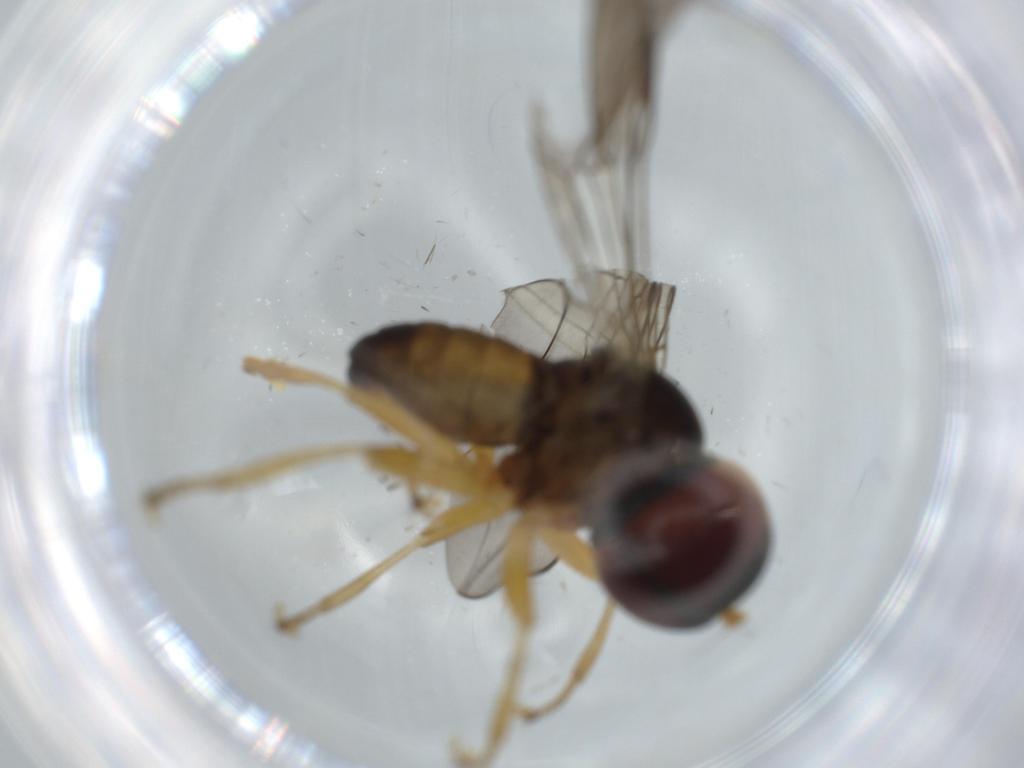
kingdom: Animalia
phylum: Arthropoda
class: Insecta
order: Diptera
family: Pipunculidae
